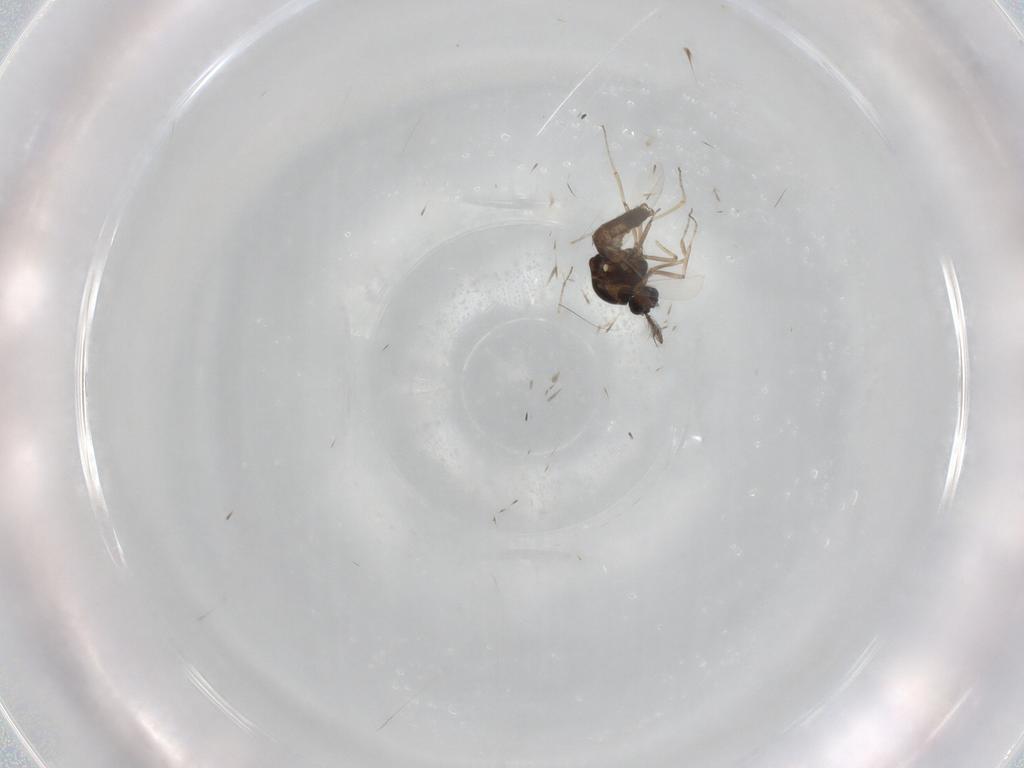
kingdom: Animalia
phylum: Arthropoda
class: Insecta
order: Diptera
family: Ceratopogonidae
